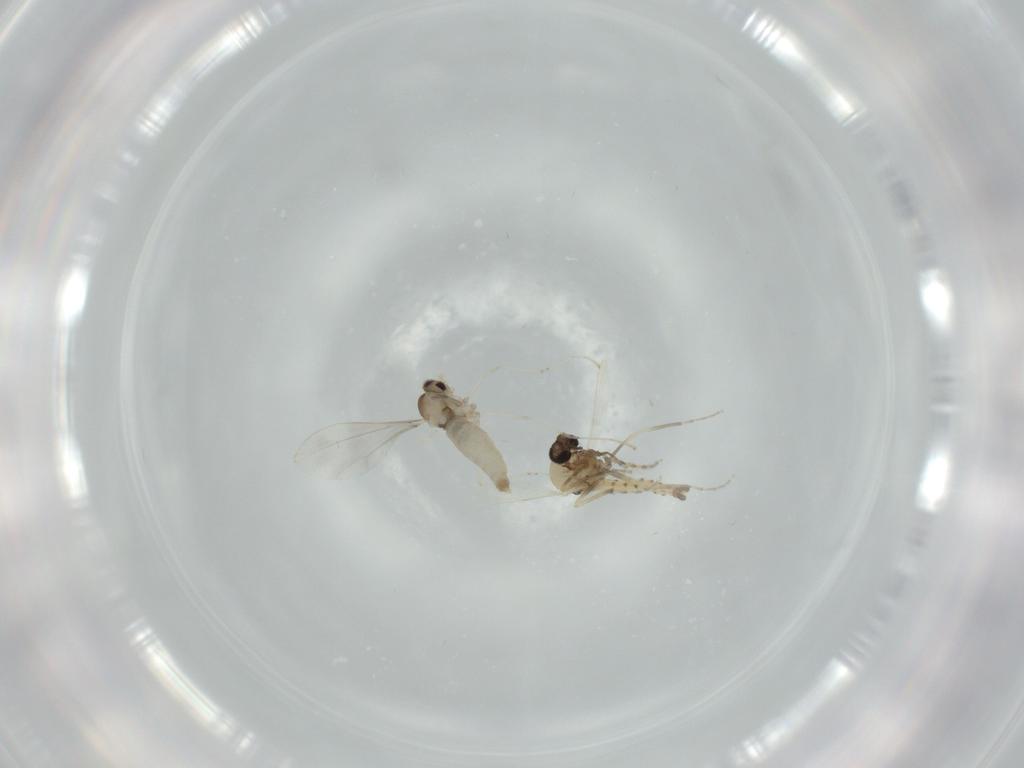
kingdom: Animalia
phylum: Arthropoda
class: Insecta
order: Diptera
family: Sciaridae
